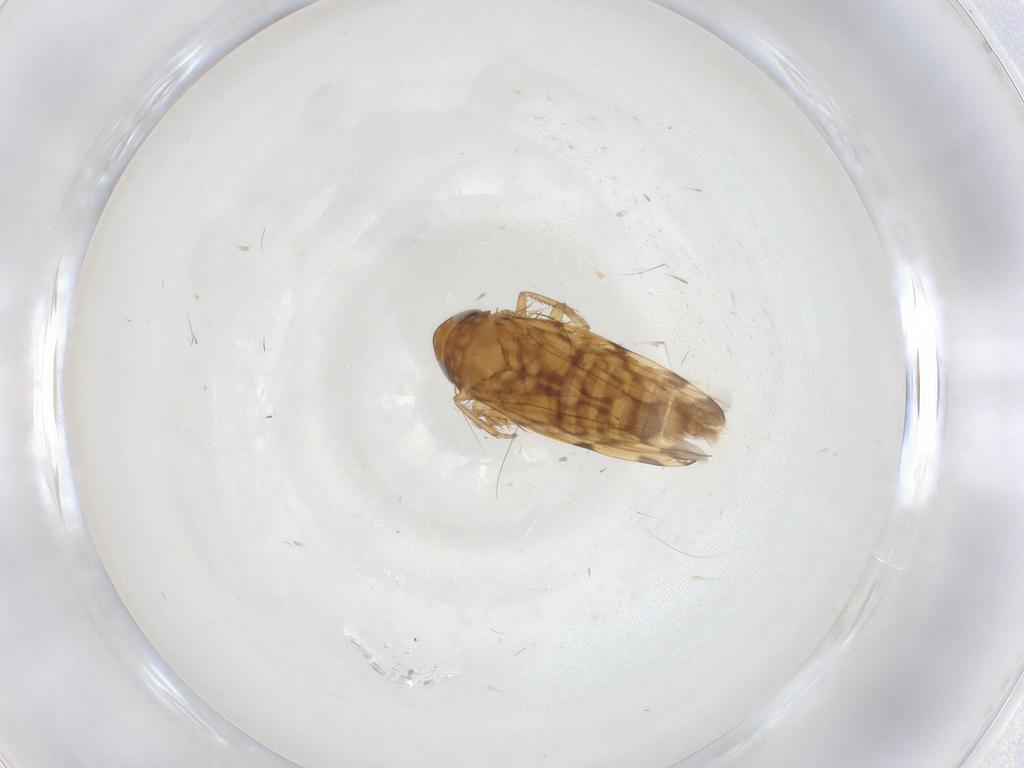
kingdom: Animalia
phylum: Arthropoda
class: Insecta
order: Hemiptera
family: Cicadellidae
